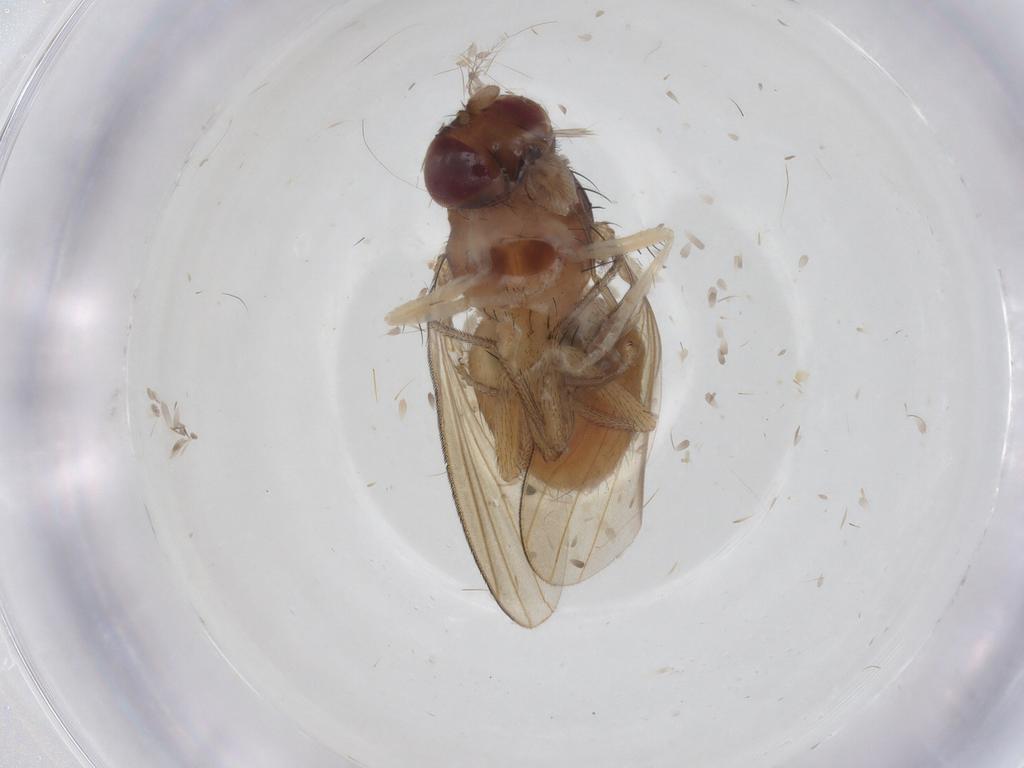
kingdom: Animalia
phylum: Arthropoda
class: Insecta
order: Diptera
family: Lauxaniidae
